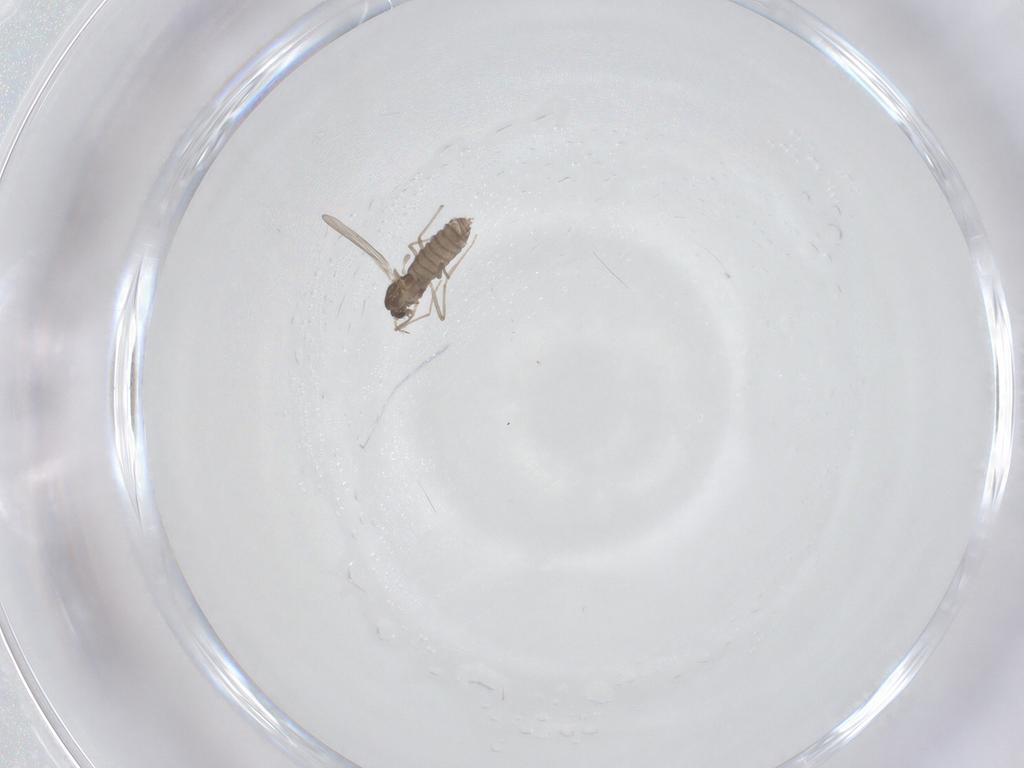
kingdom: Animalia
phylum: Arthropoda
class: Insecta
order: Diptera
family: Chironomidae
